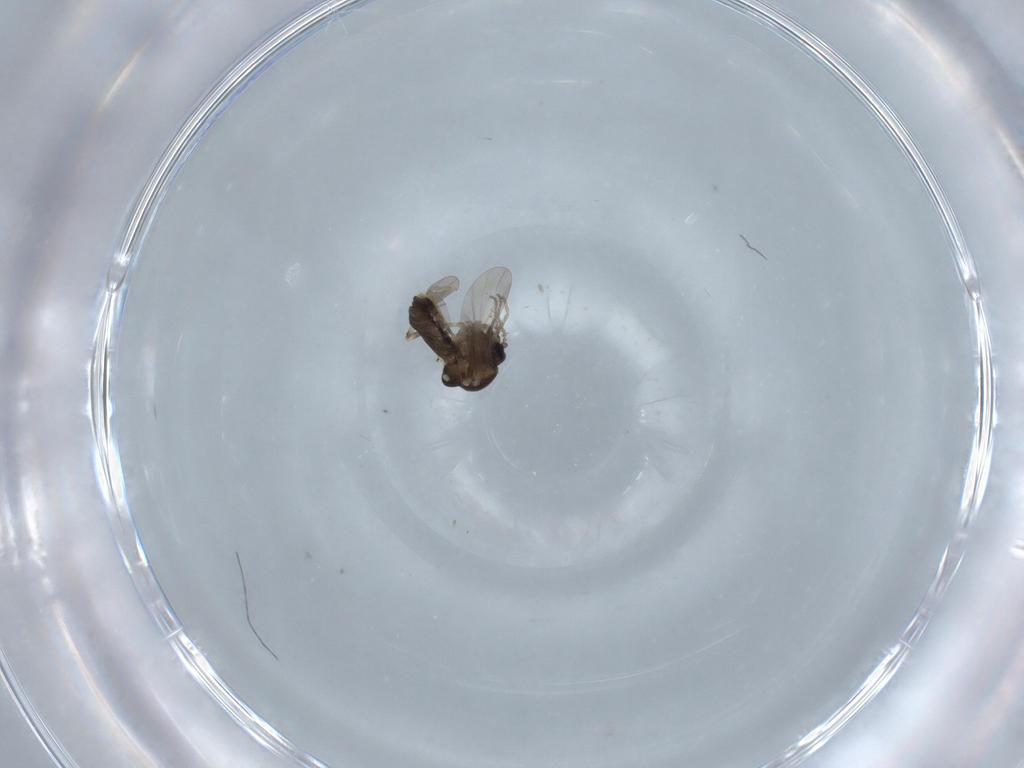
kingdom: Animalia
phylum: Arthropoda
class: Insecta
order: Diptera
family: Ceratopogonidae
